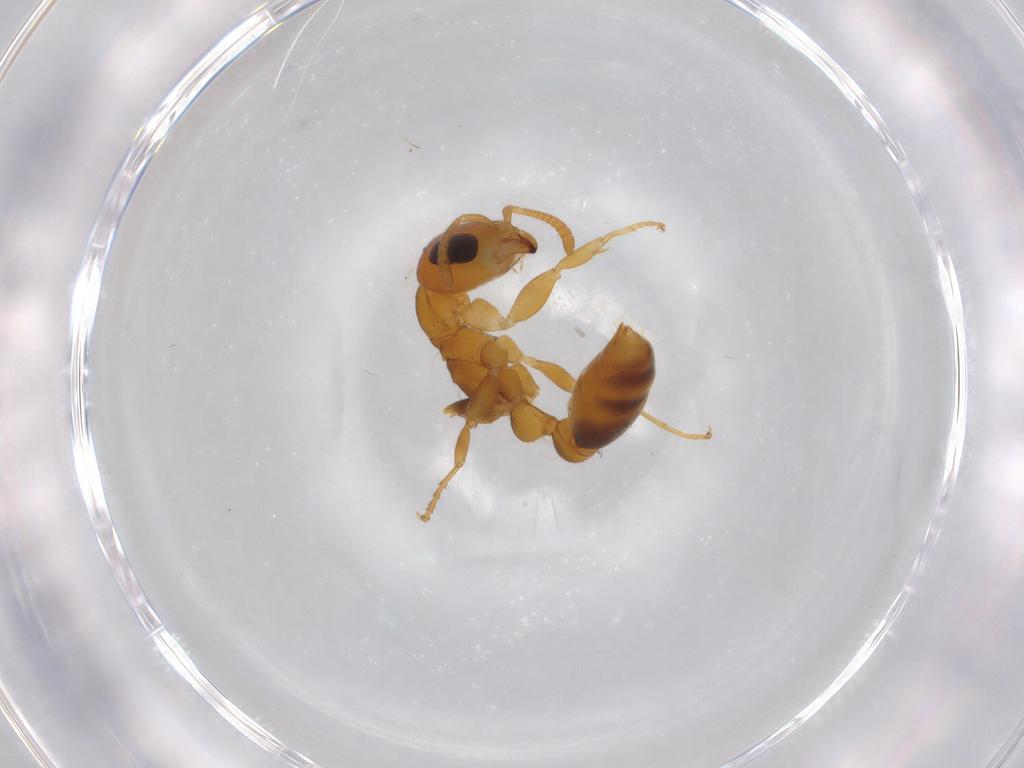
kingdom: Animalia
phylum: Arthropoda
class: Insecta
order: Hymenoptera
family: Formicidae
